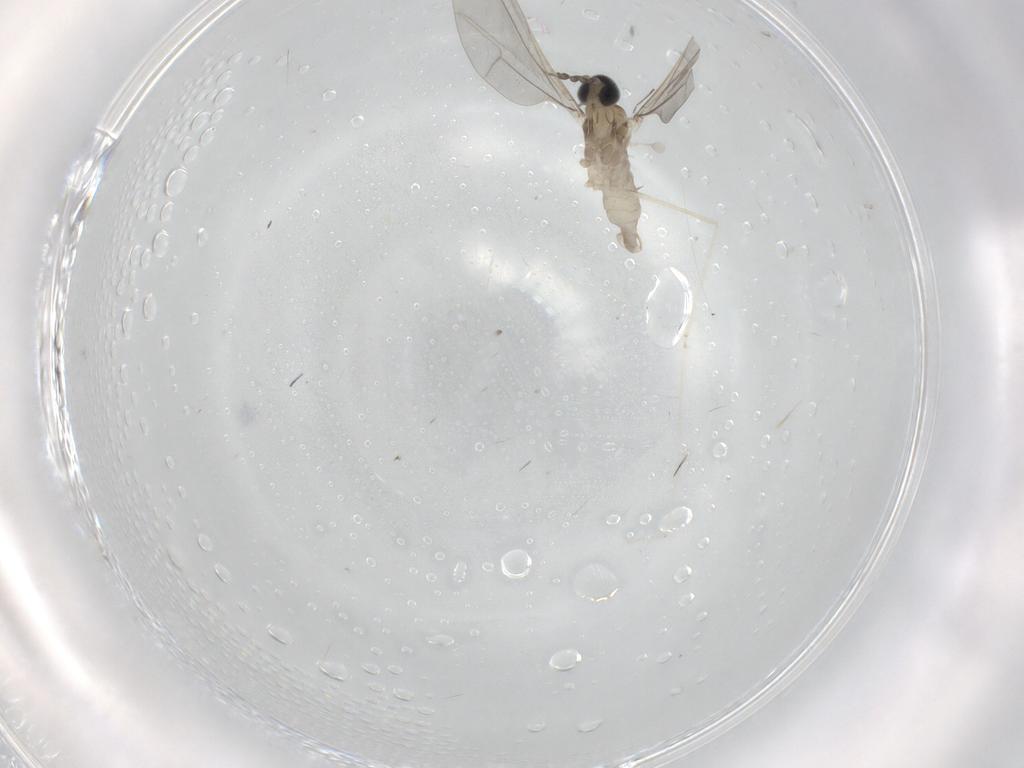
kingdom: Animalia
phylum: Arthropoda
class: Insecta
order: Diptera
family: Cecidomyiidae
